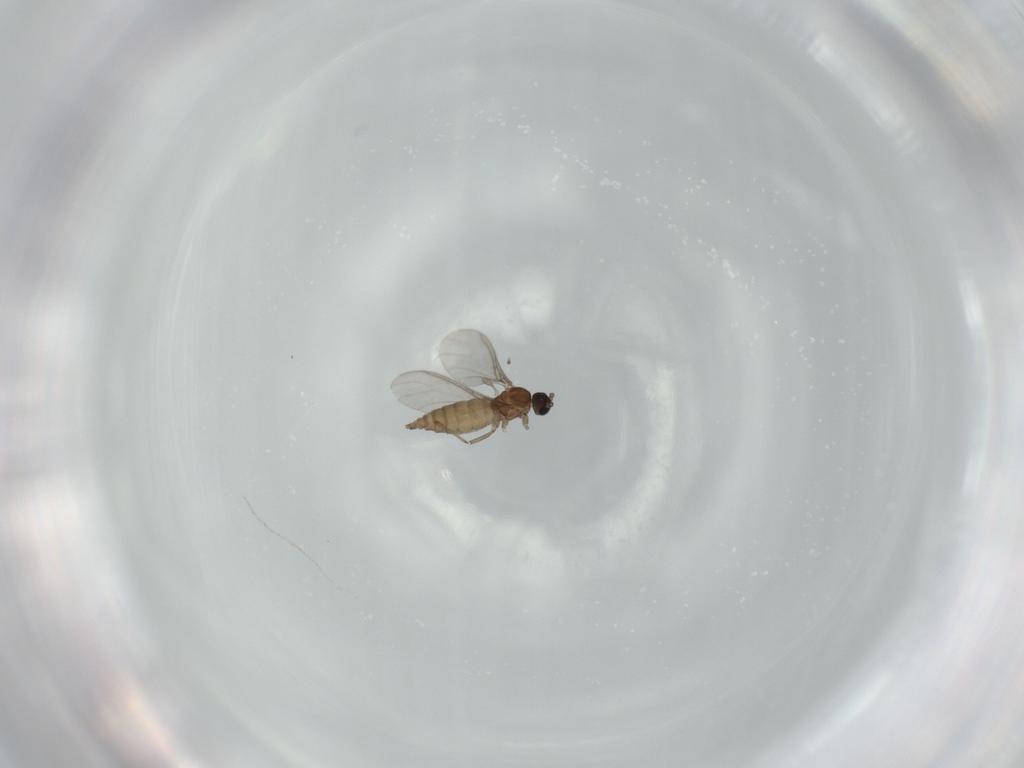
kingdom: Animalia
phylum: Arthropoda
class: Insecta
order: Diptera
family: Sciaridae
